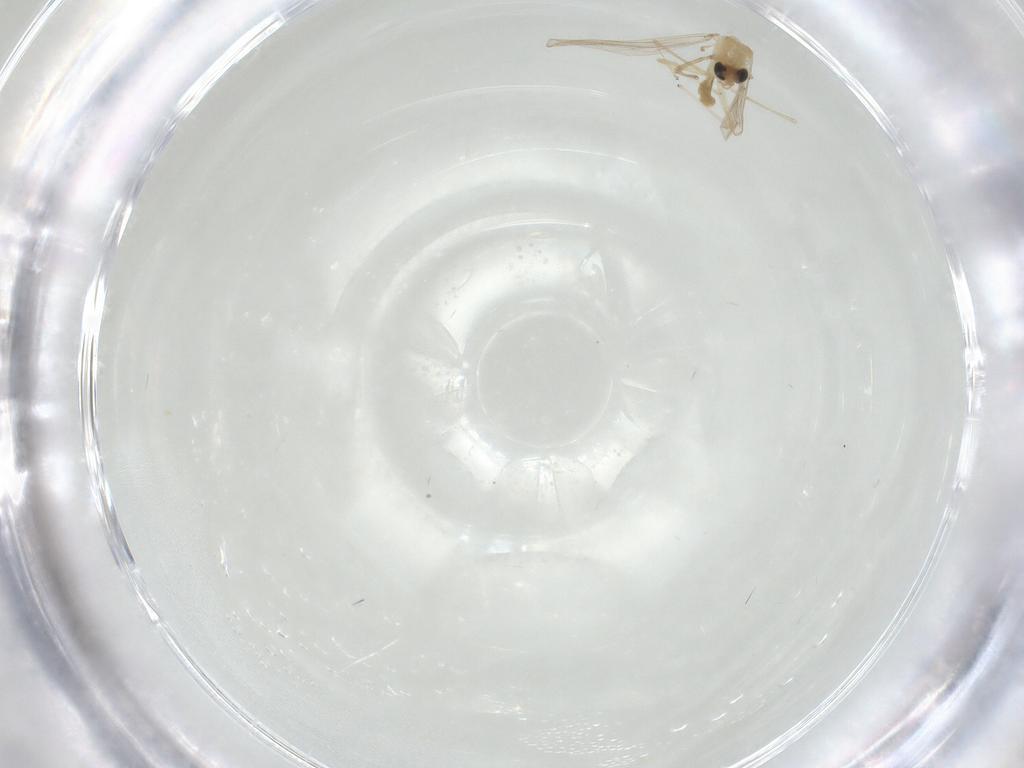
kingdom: Animalia
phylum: Arthropoda
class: Insecta
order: Diptera
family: Chironomidae
